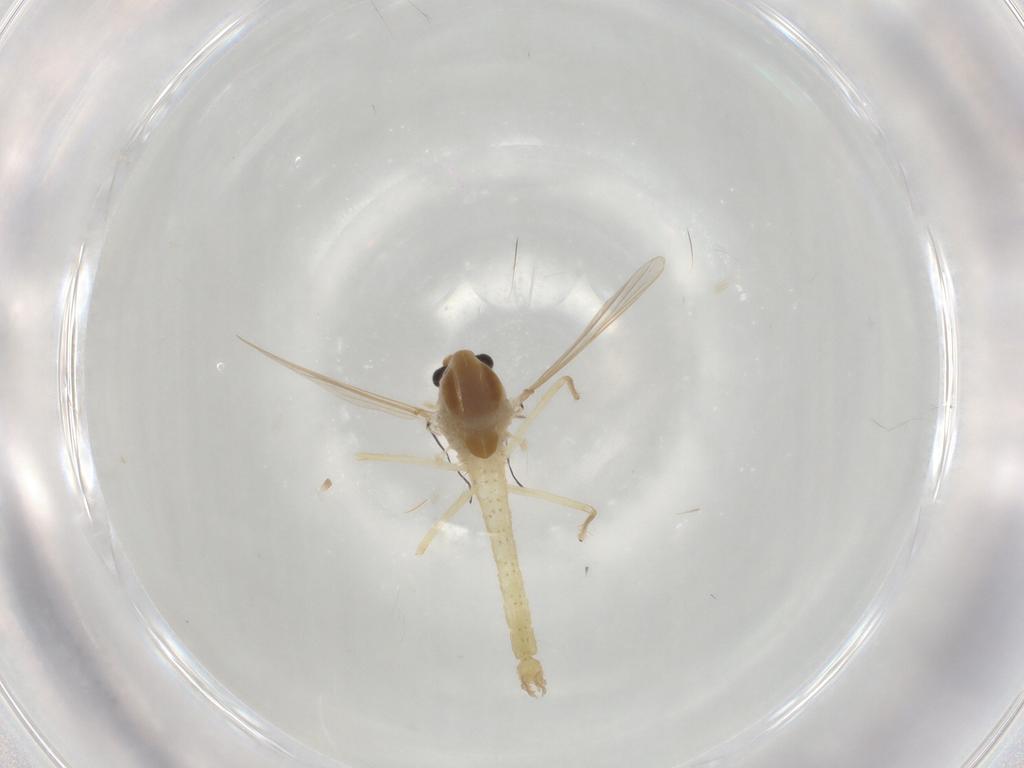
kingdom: Animalia
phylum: Arthropoda
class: Insecta
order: Diptera
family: Chironomidae
